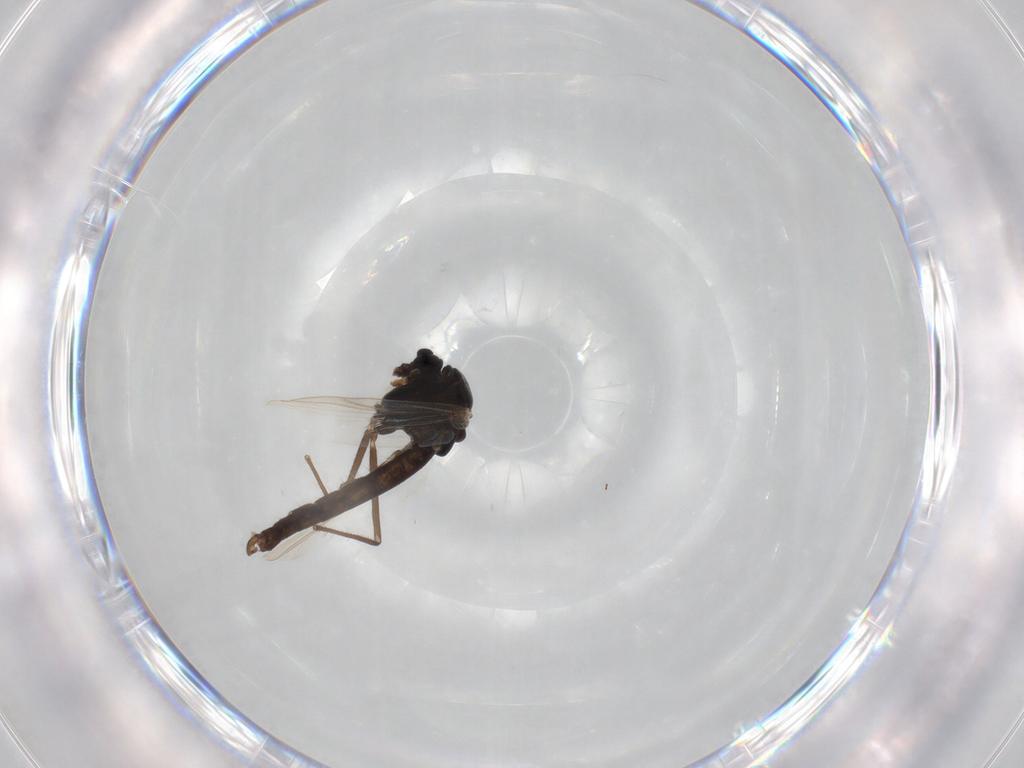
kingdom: Animalia
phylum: Arthropoda
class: Insecta
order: Diptera
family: Chironomidae
